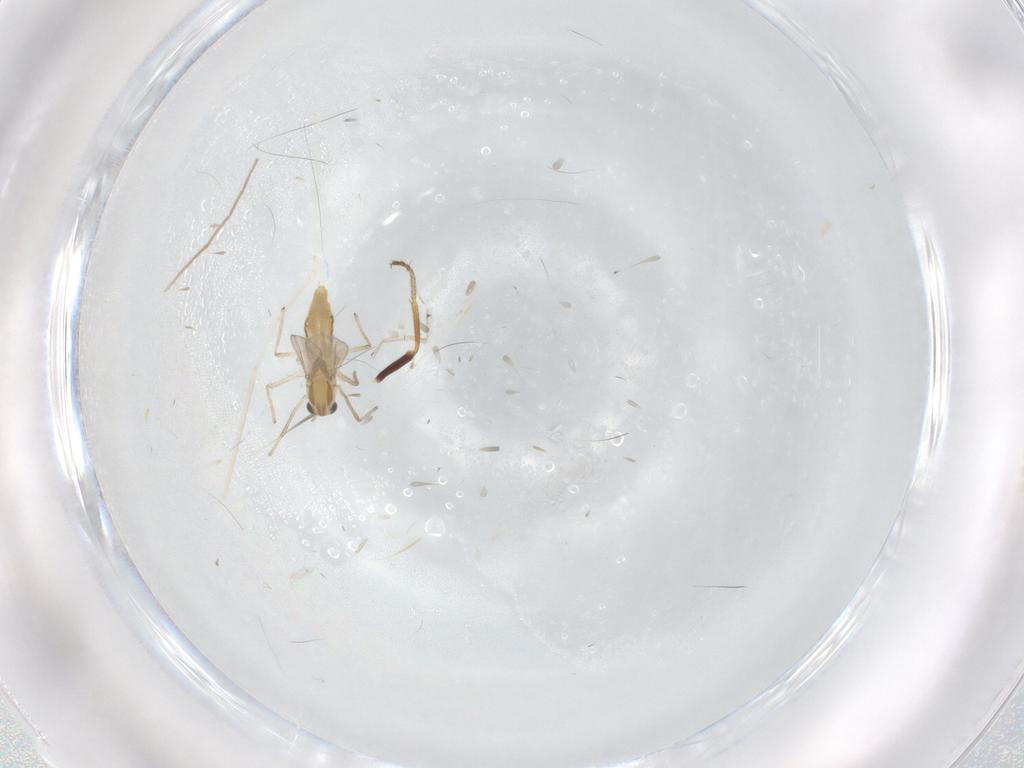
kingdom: Animalia
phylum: Arthropoda
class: Insecta
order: Diptera
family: Cecidomyiidae
